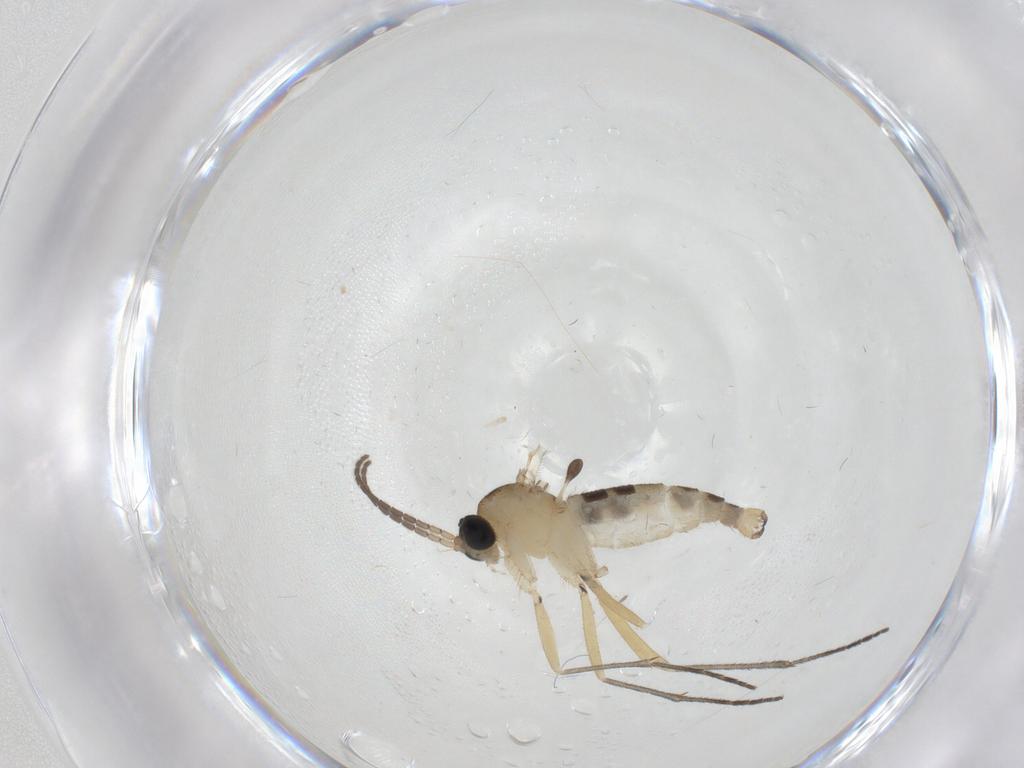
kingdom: Animalia
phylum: Arthropoda
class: Insecta
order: Diptera
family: Sciaridae
